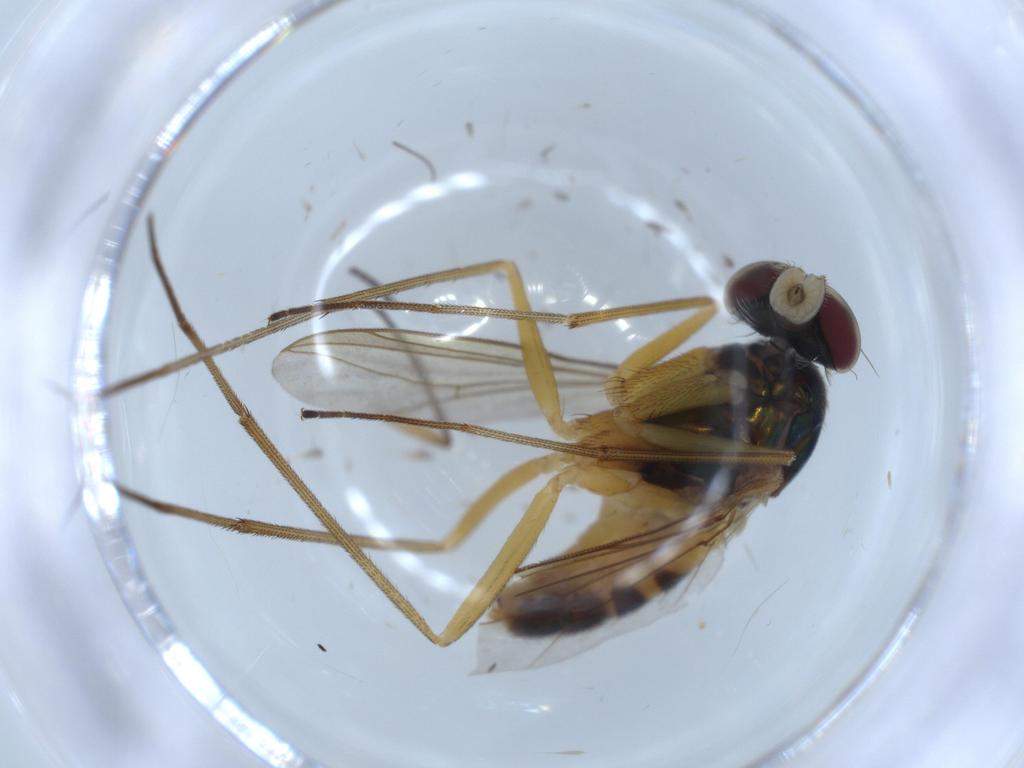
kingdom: Animalia
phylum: Arthropoda
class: Insecta
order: Diptera
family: Dolichopodidae
